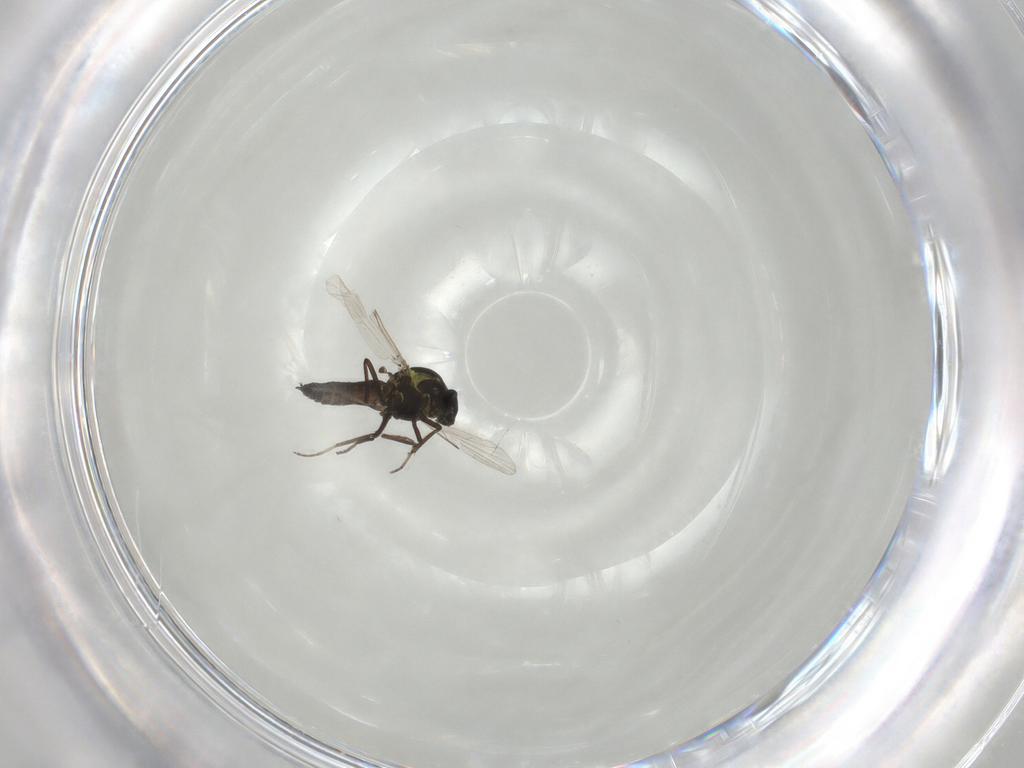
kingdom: Animalia
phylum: Arthropoda
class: Insecta
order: Diptera
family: Ceratopogonidae
